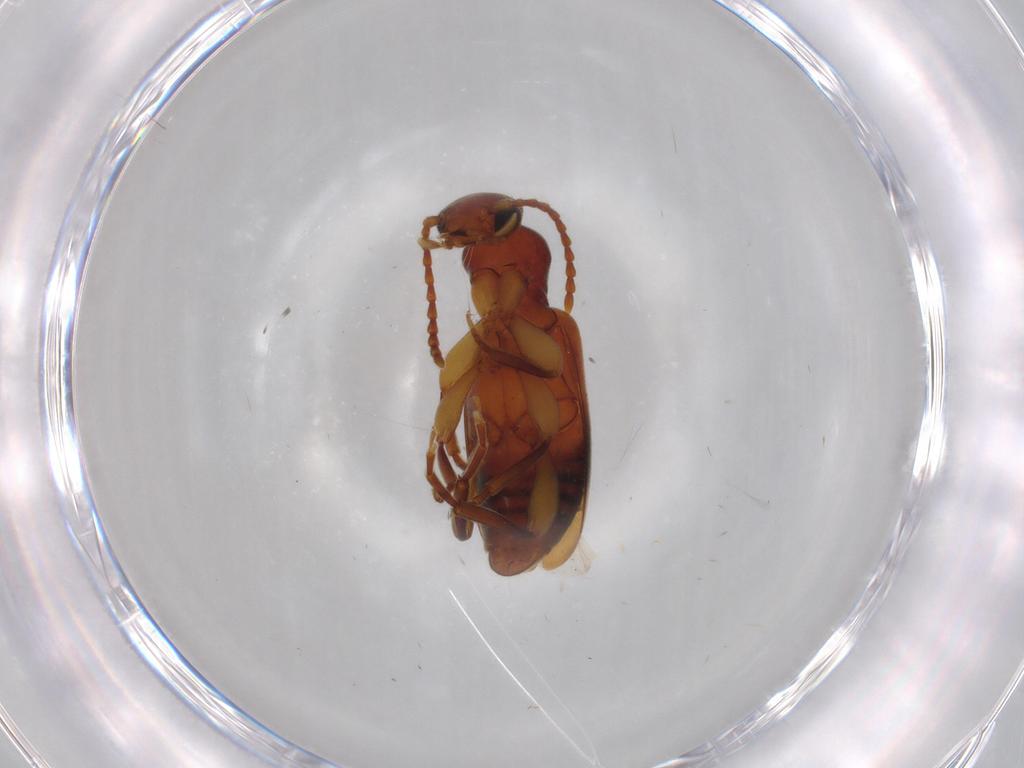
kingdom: Animalia
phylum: Arthropoda
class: Insecta
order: Coleoptera
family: Anthicidae
